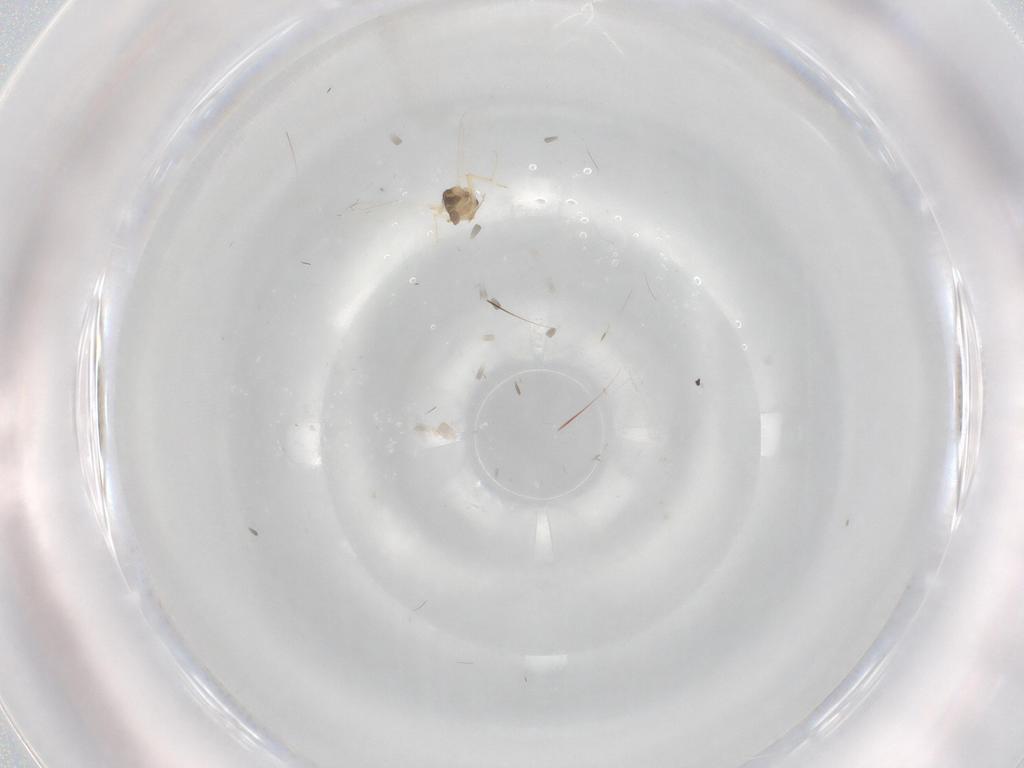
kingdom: Animalia
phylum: Arthropoda
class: Insecta
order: Diptera
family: Chironomidae
